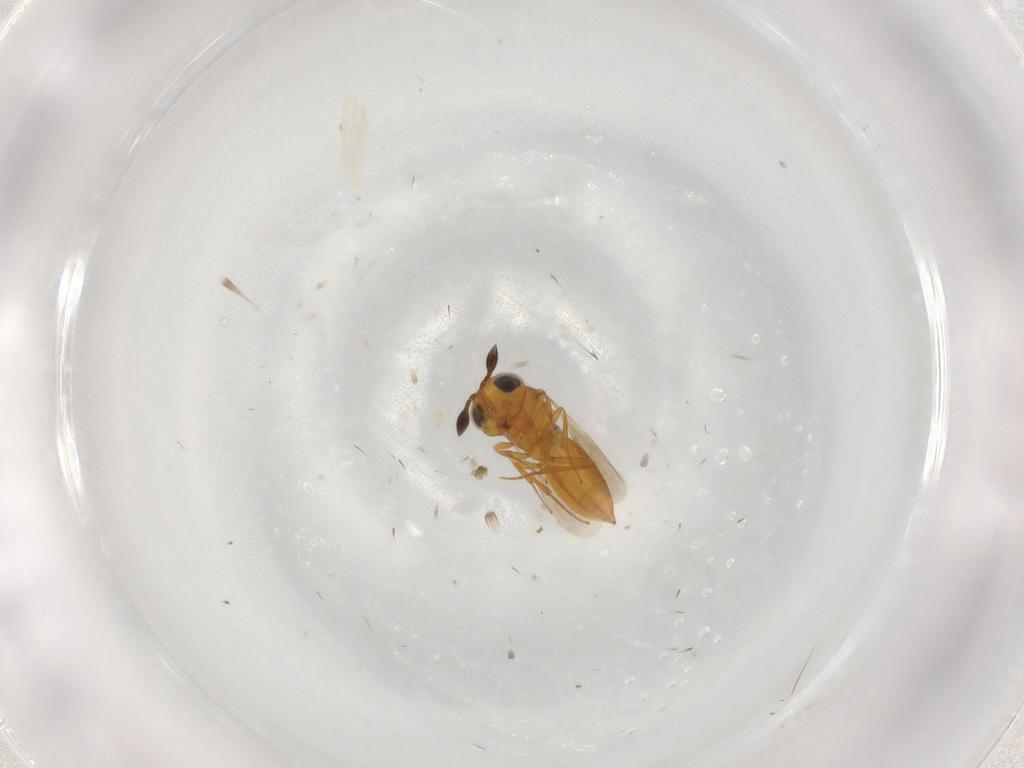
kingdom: Animalia
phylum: Arthropoda
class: Insecta
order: Hymenoptera
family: Scelionidae
